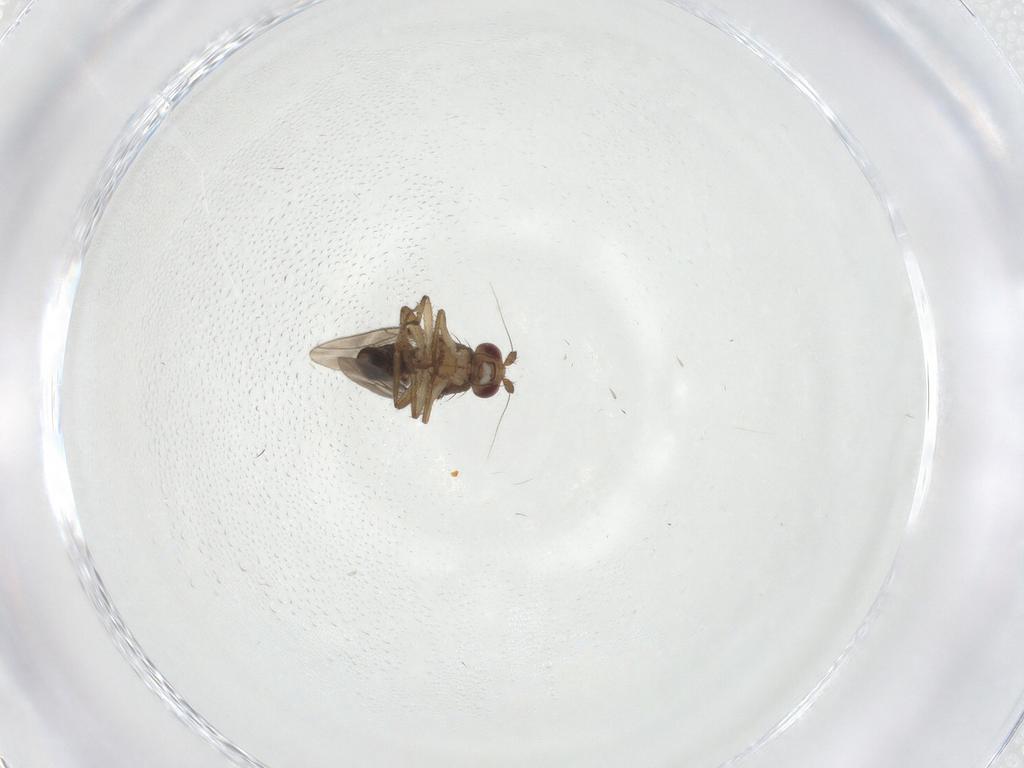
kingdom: Animalia
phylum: Arthropoda
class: Insecta
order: Diptera
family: Sphaeroceridae
